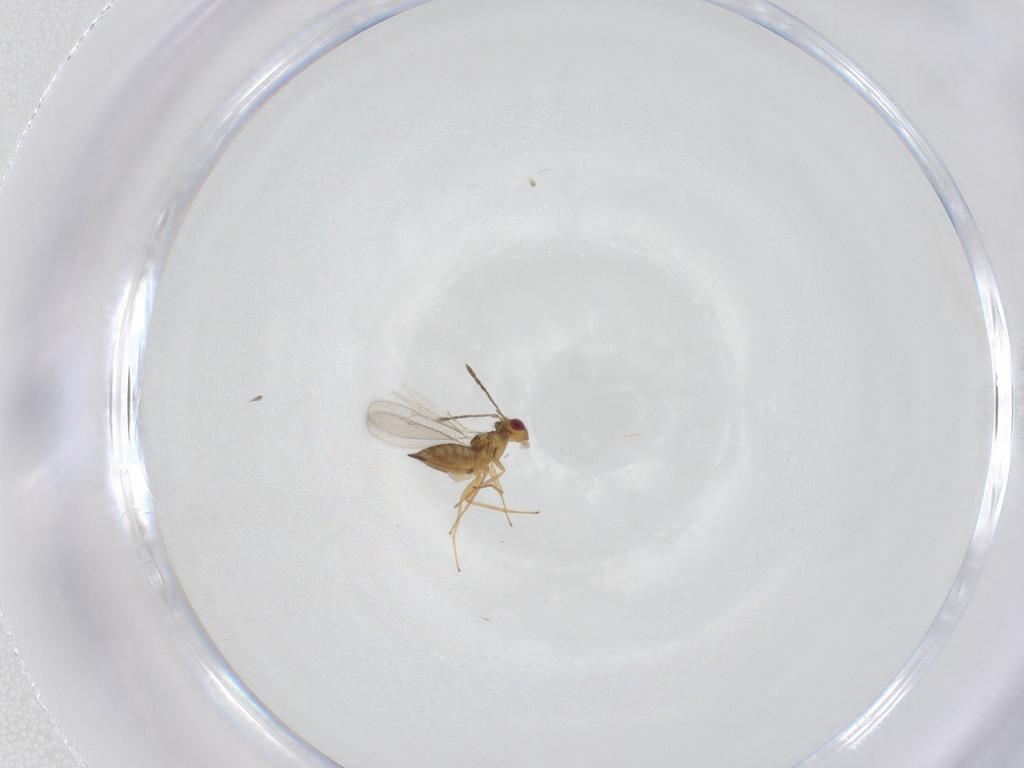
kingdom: Animalia
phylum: Arthropoda
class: Insecta
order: Hymenoptera
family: Eulophidae
